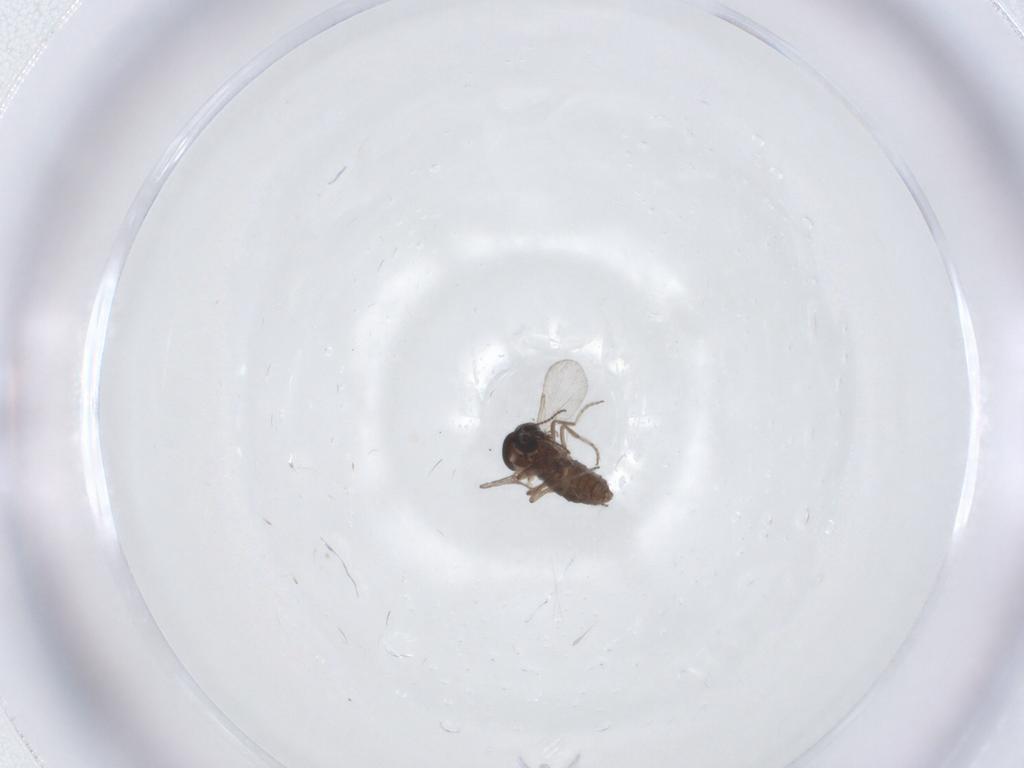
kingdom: Animalia
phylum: Arthropoda
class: Insecta
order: Diptera
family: Ceratopogonidae
